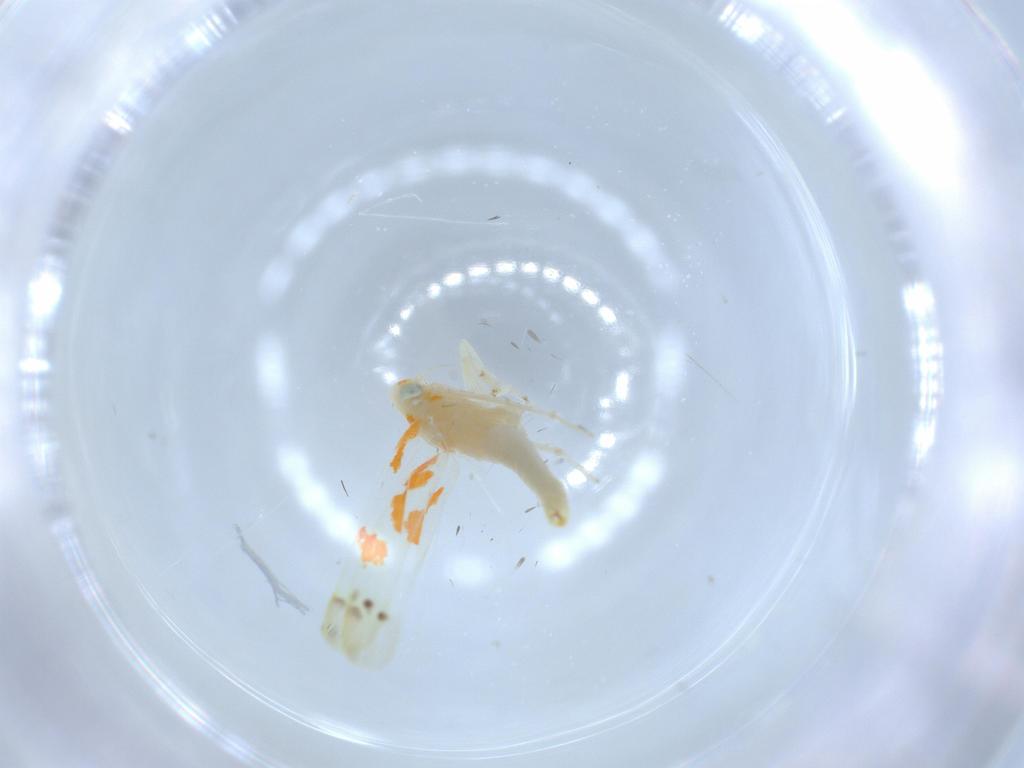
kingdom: Animalia
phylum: Arthropoda
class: Insecta
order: Hemiptera
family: Cicadellidae
